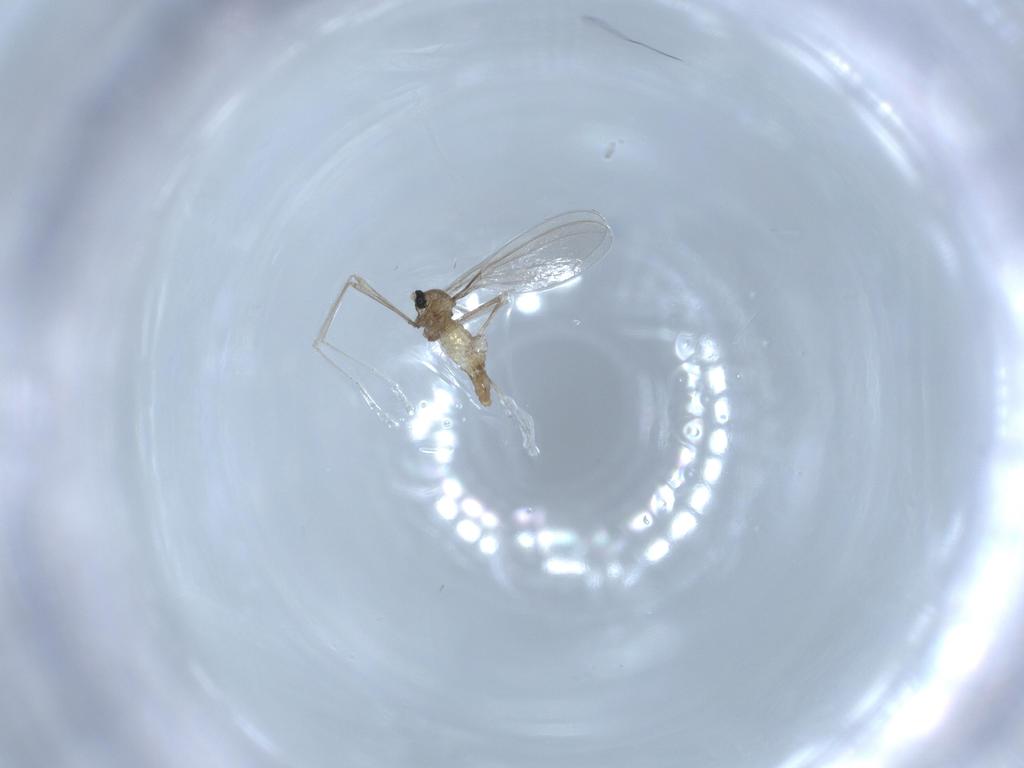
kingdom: Animalia
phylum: Arthropoda
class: Insecta
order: Diptera
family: Cecidomyiidae
